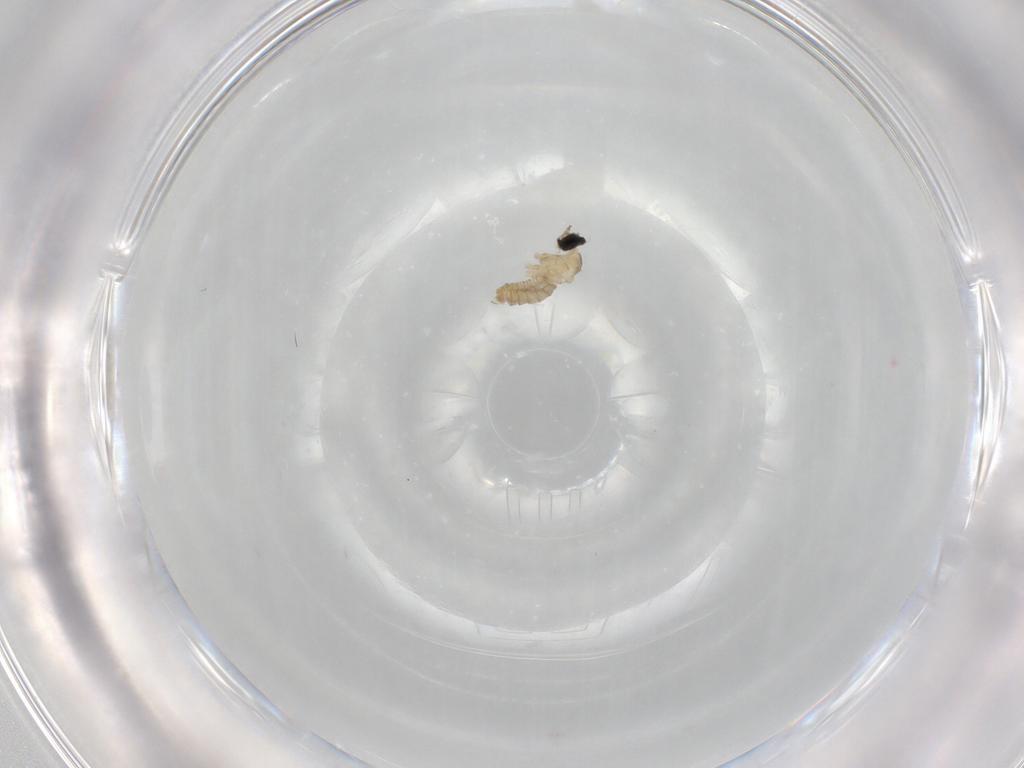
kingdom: Animalia
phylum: Arthropoda
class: Insecta
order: Diptera
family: Cecidomyiidae
